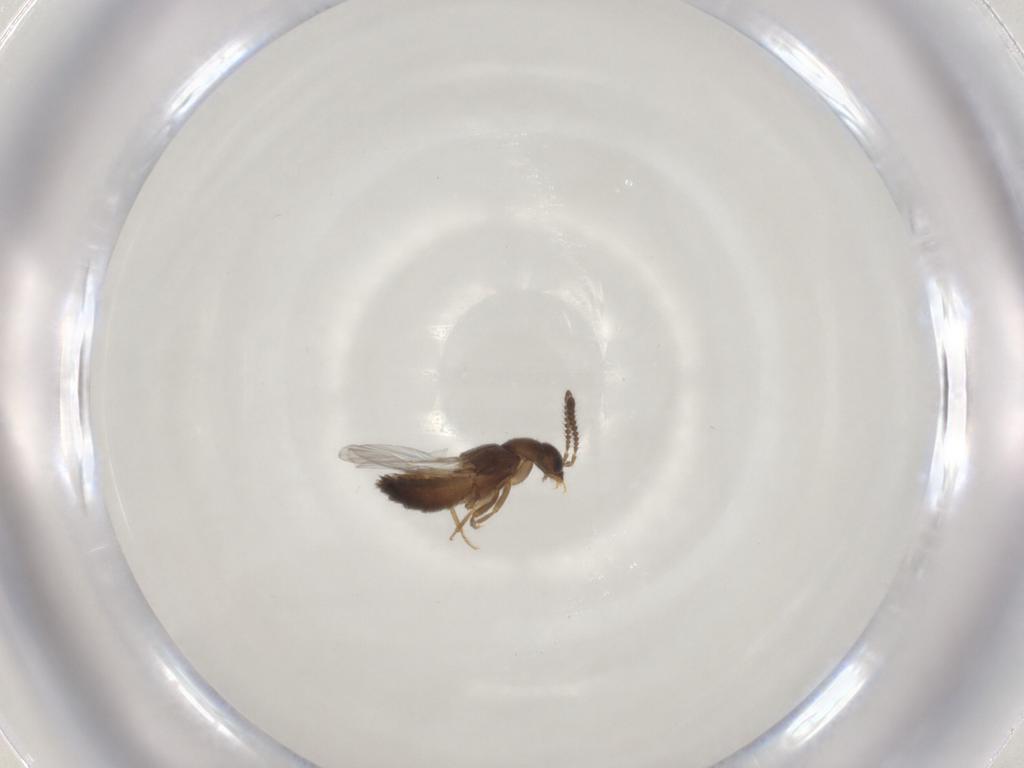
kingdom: Animalia
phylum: Arthropoda
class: Insecta
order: Coleoptera
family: Staphylinidae
